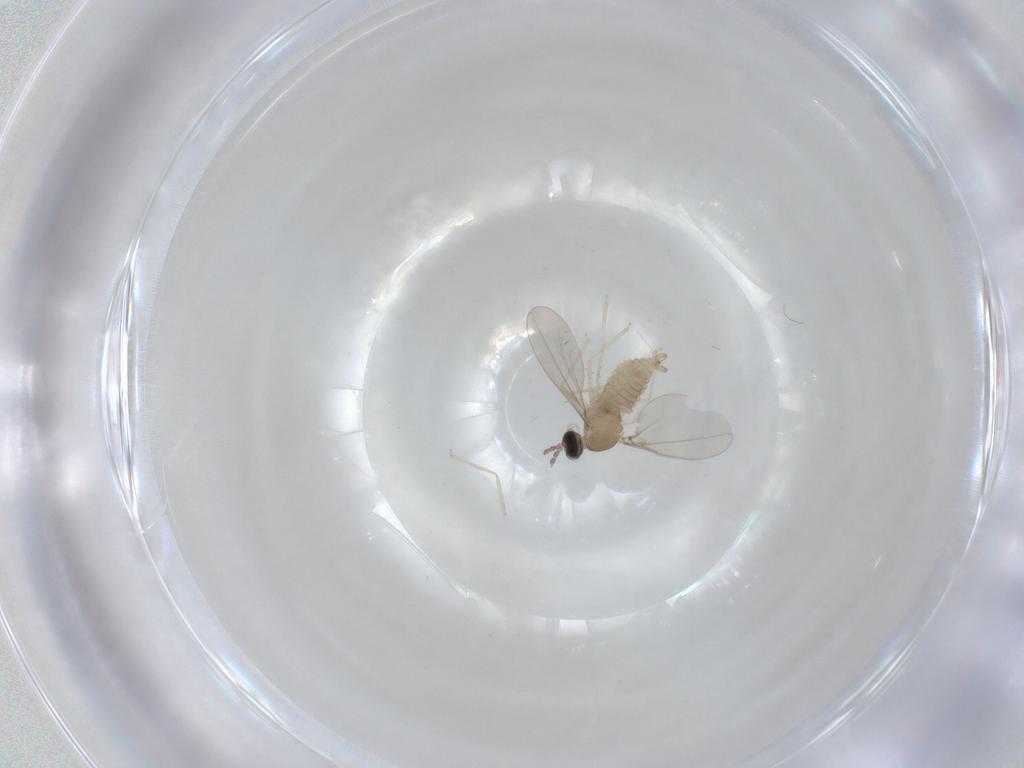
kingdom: Animalia
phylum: Arthropoda
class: Insecta
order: Diptera
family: Cecidomyiidae
